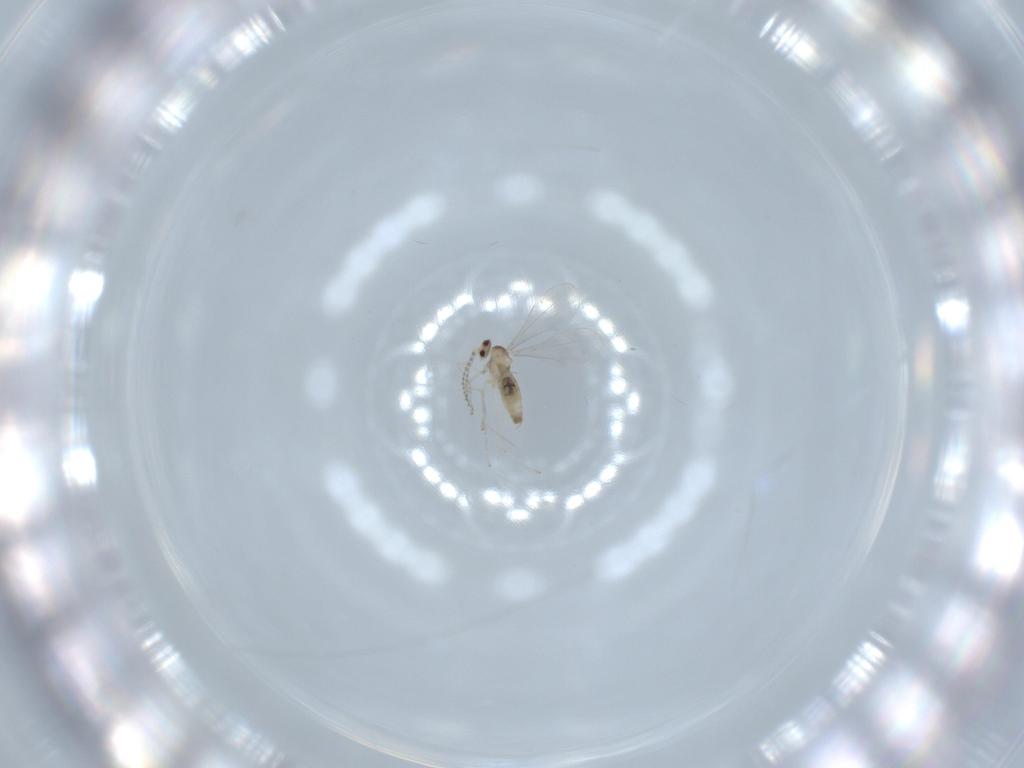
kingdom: Animalia
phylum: Arthropoda
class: Insecta
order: Diptera
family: Cecidomyiidae
